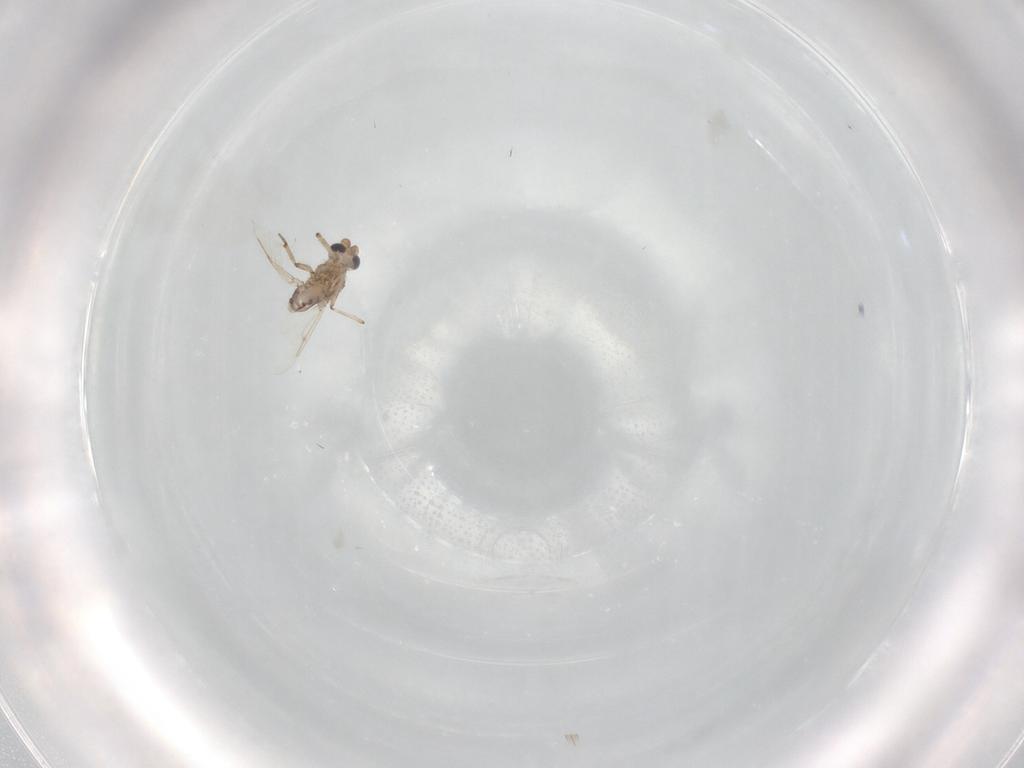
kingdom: Animalia
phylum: Arthropoda
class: Insecta
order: Diptera
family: Ceratopogonidae
